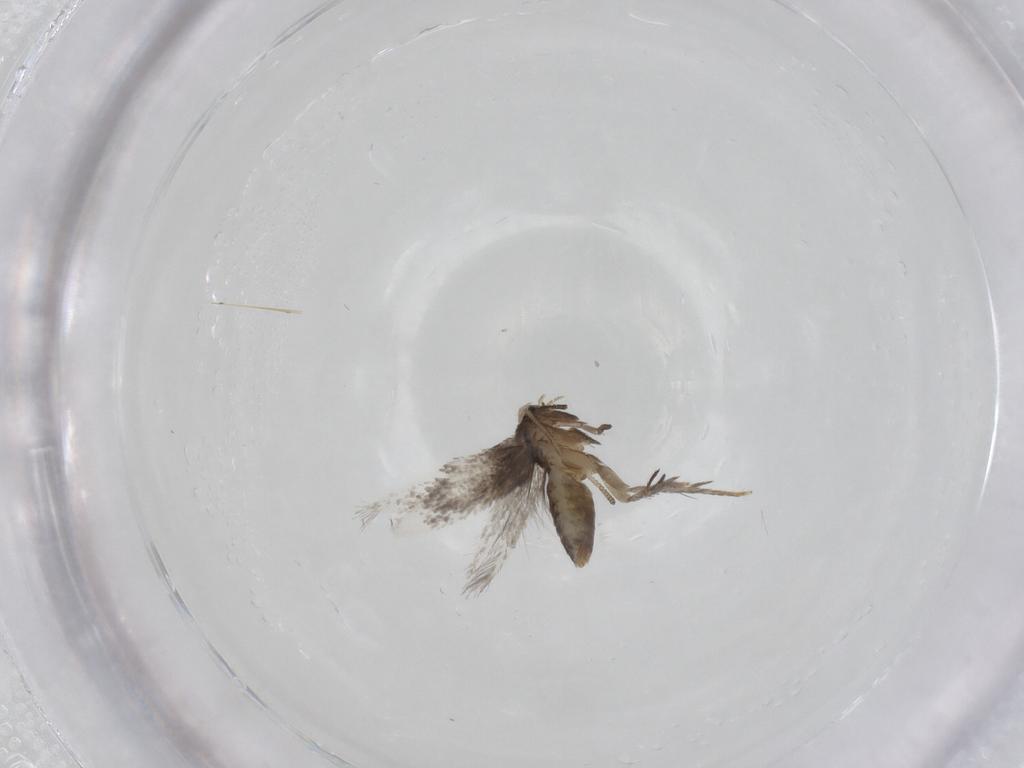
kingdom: Animalia
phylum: Arthropoda
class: Insecta
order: Lepidoptera
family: Nepticulidae
